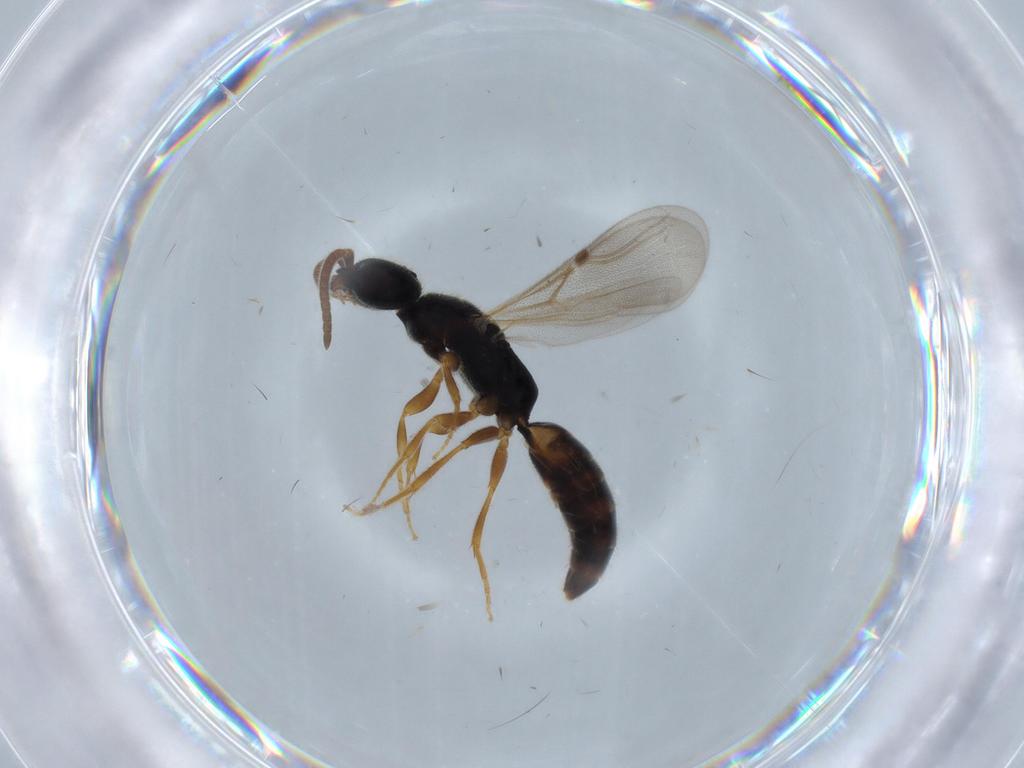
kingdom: Animalia
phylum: Arthropoda
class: Insecta
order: Hymenoptera
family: Bethylidae
